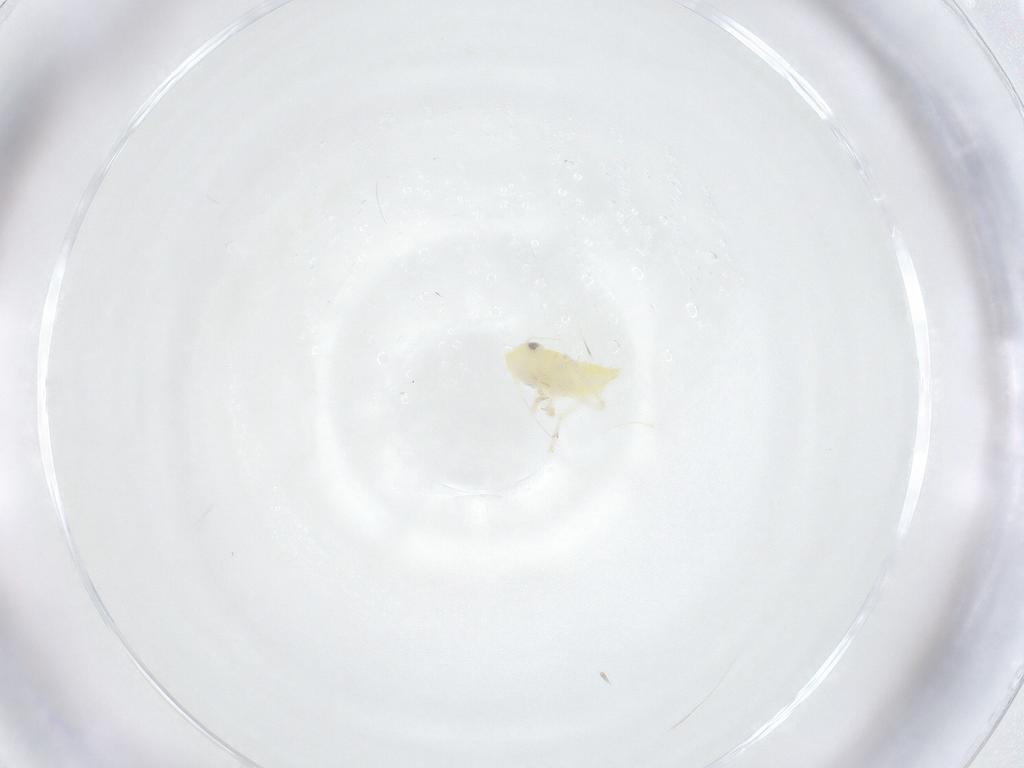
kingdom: Animalia
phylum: Arthropoda
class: Insecta
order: Hemiptera
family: Cicadellidae
